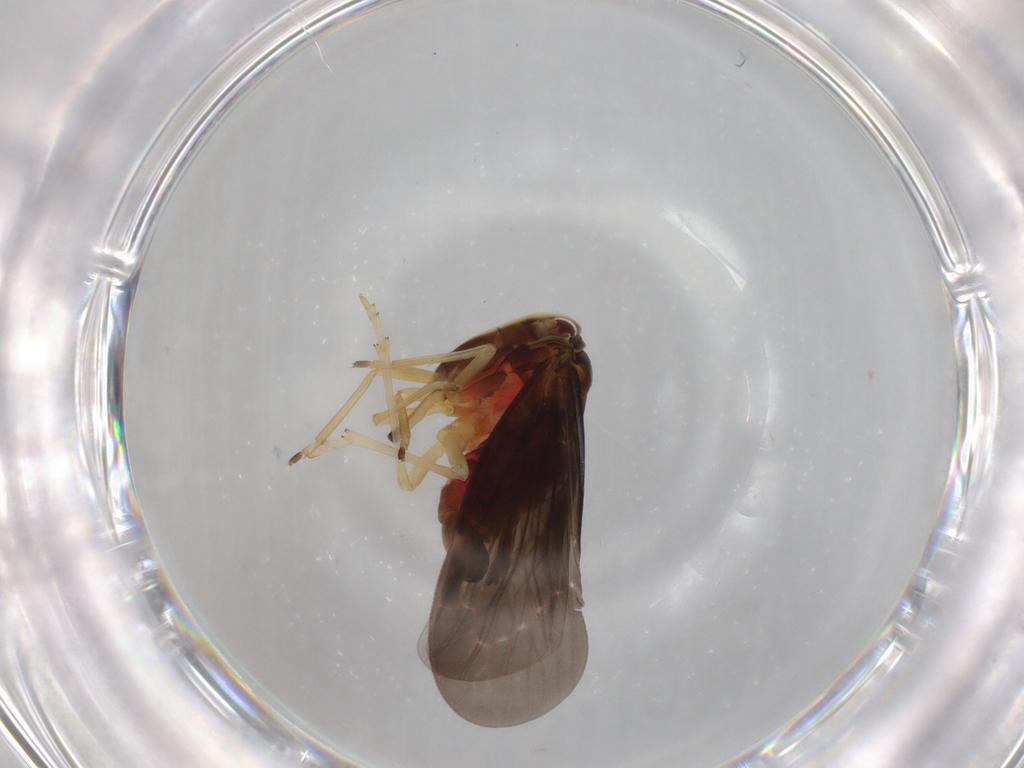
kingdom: Animalia
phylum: Arthropoda
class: Insecta
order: Hemiptera
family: Derbidae
